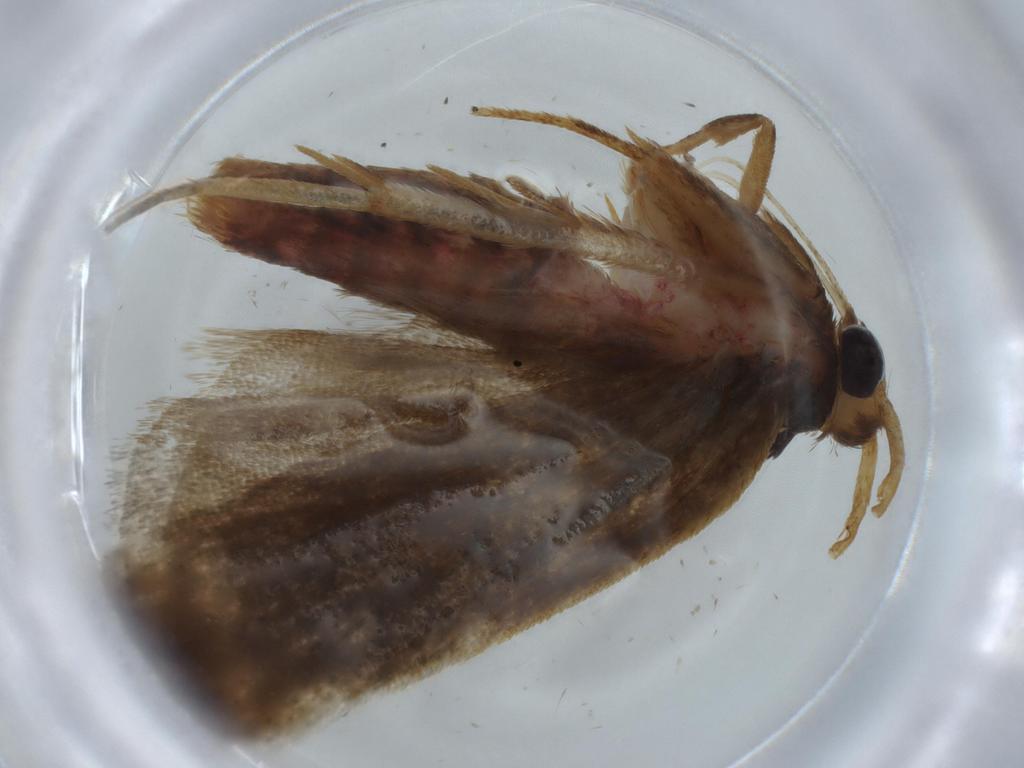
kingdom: Animalia
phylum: Arthropoda
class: Insecta
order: Lepidoptera
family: Autostichidae
